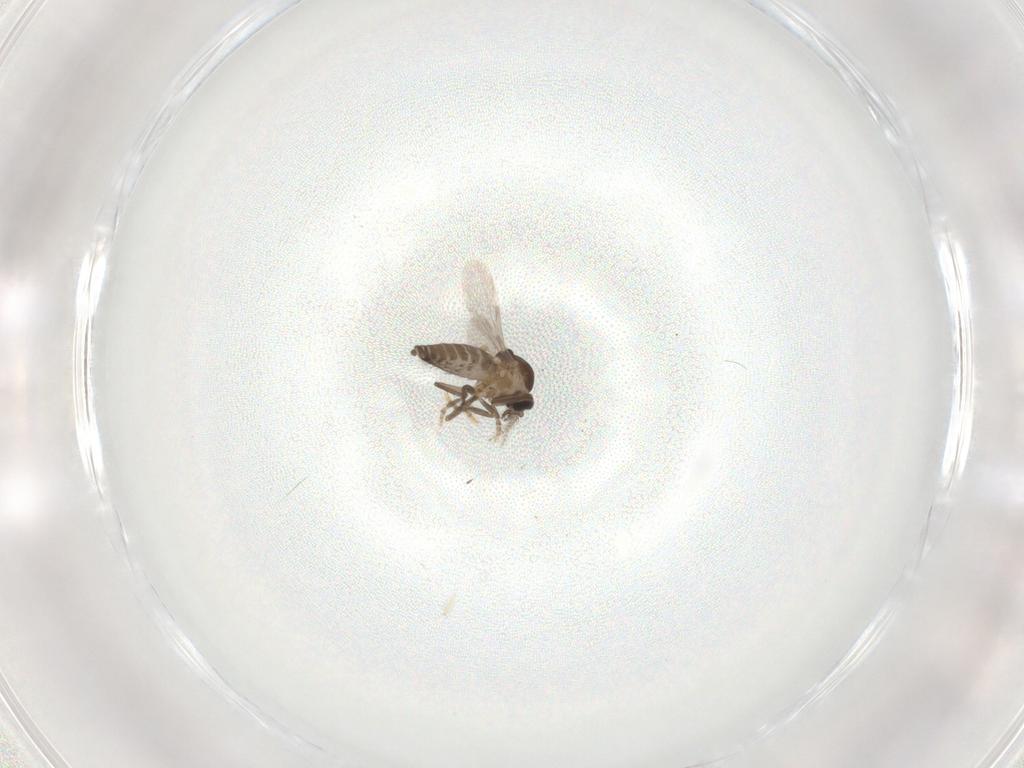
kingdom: Animalia
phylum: Arthropoda
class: Insecta
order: Diptera
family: Ceratopogonidae
